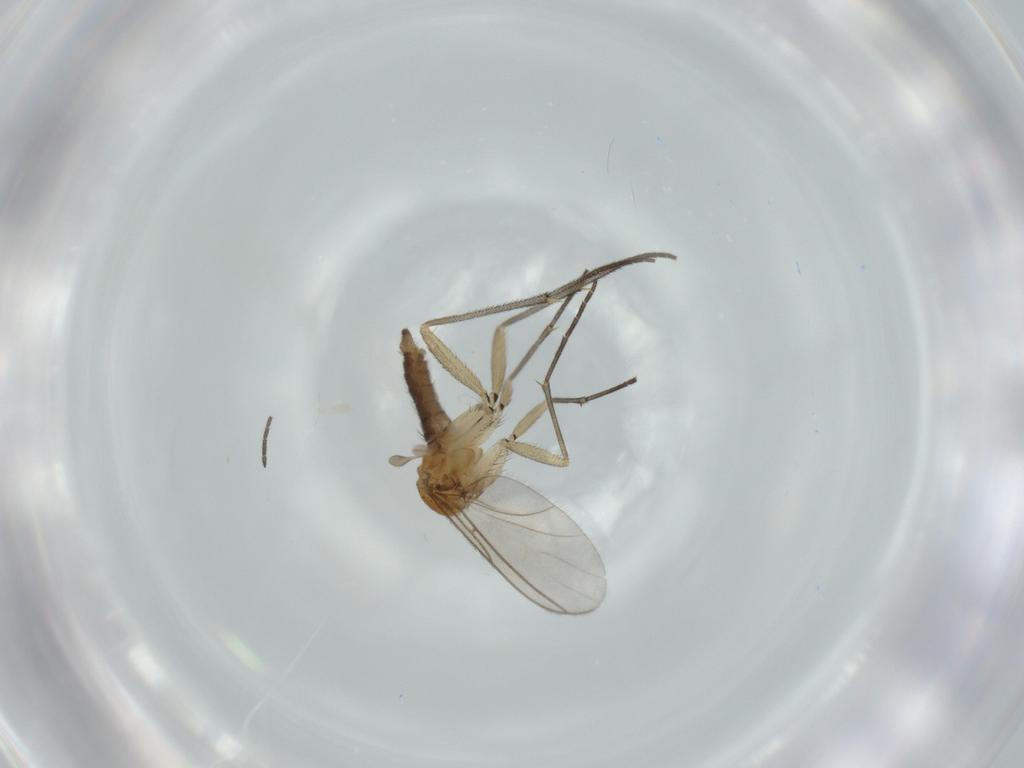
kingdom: Animalia
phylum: Arthropoda
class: Insecta
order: Diptera
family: Sciaridae
